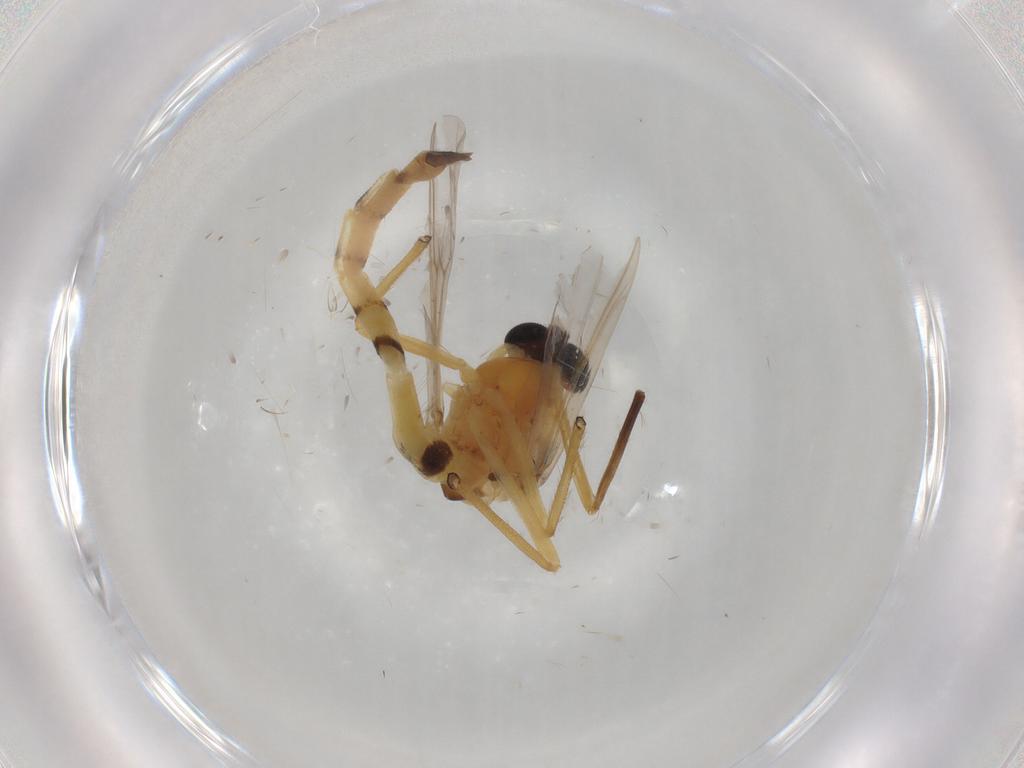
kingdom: Animalia
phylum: Arthropoda
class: Insecta
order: Diptera
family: Chironomidae
